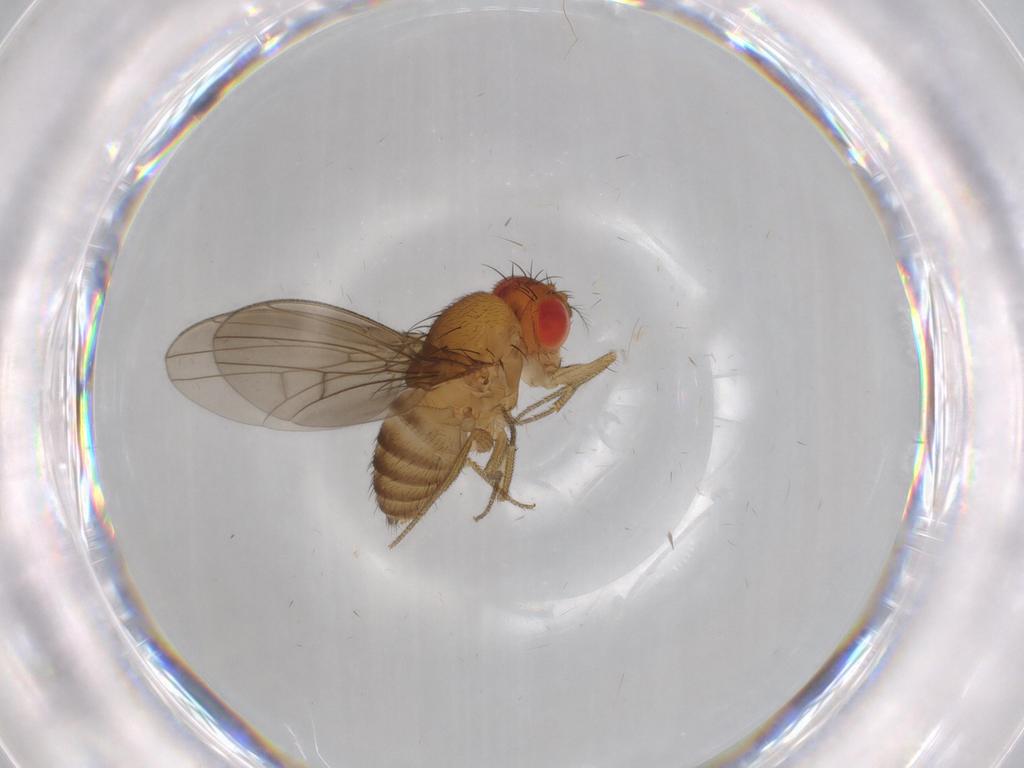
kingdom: Animalia
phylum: Arthropoda
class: Insecta
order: Diptera
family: Drosophilidae
